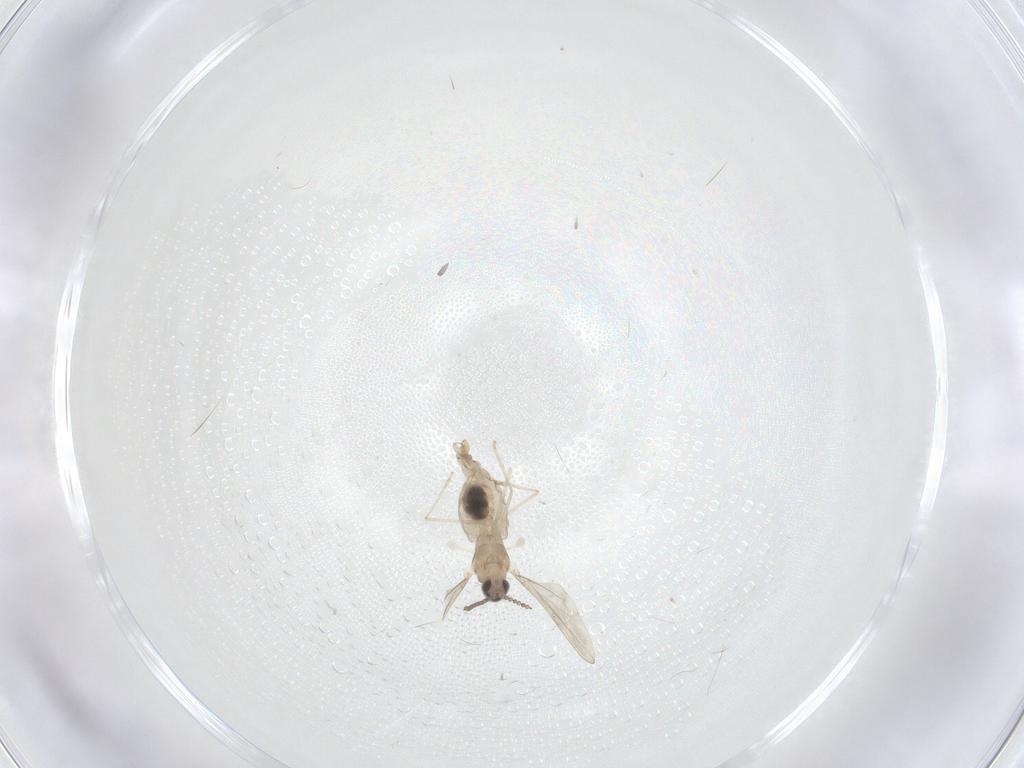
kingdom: Animalia
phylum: Arthropoda
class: Insecta
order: Diptera
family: Cecidomyiidae
